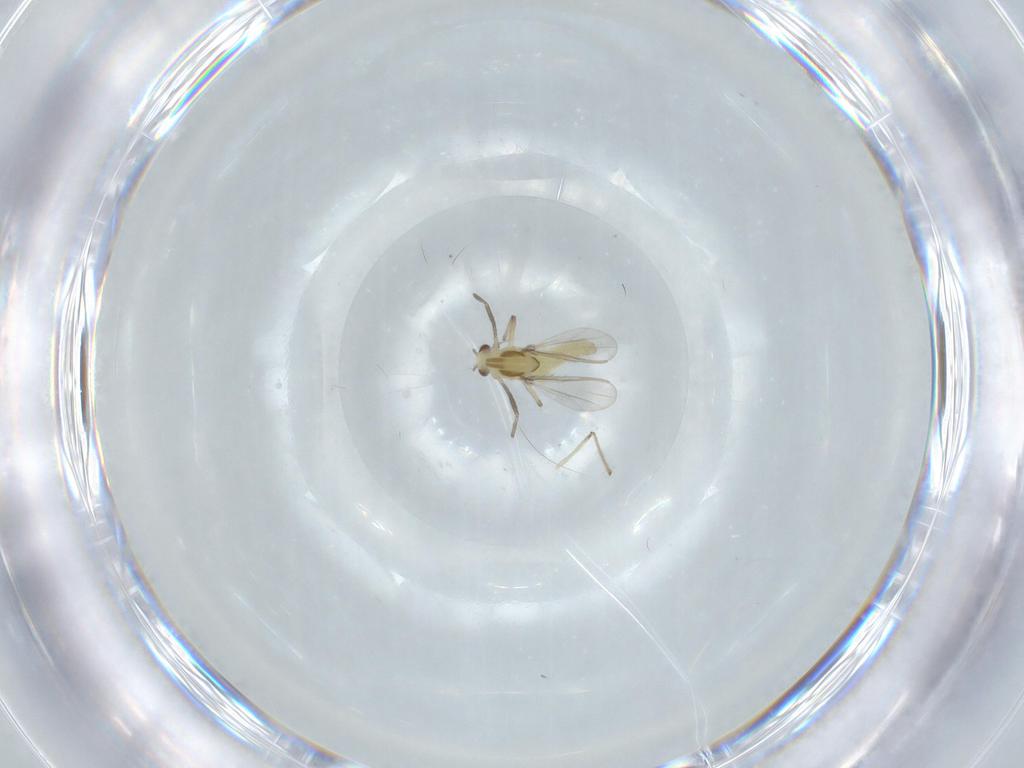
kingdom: Animalia
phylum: Arthropoda
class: Insecta
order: Diptera
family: Chironomidae
